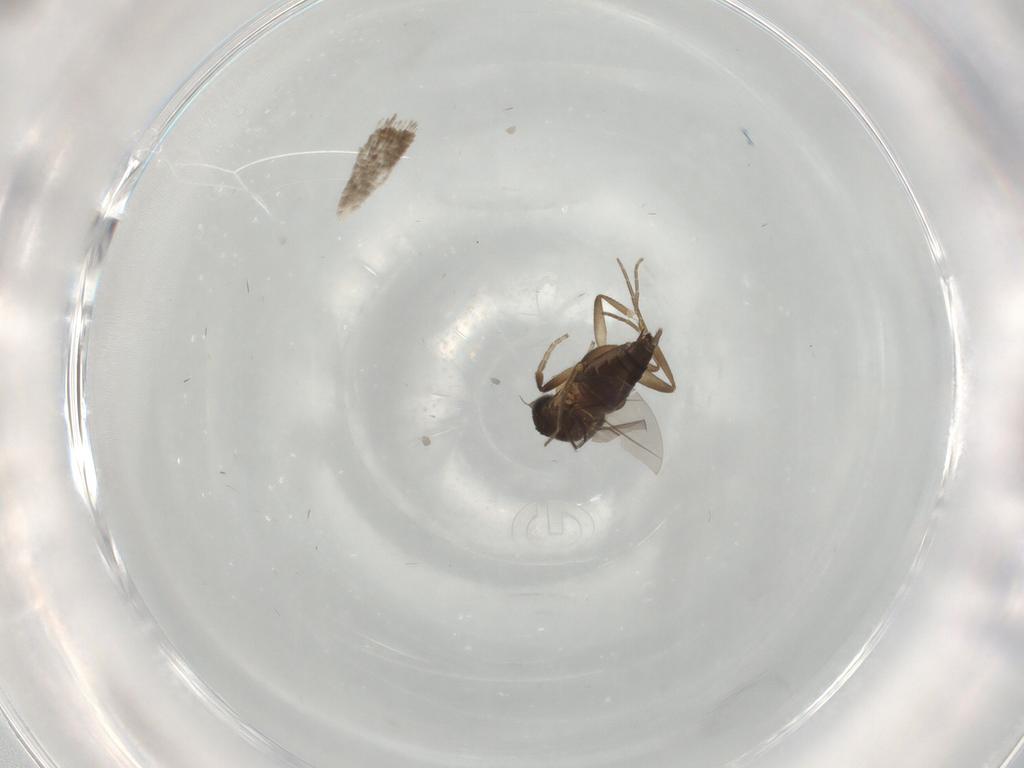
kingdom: Animalia
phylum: Arthropoda
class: Insecta
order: Diptera
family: Phoridae
